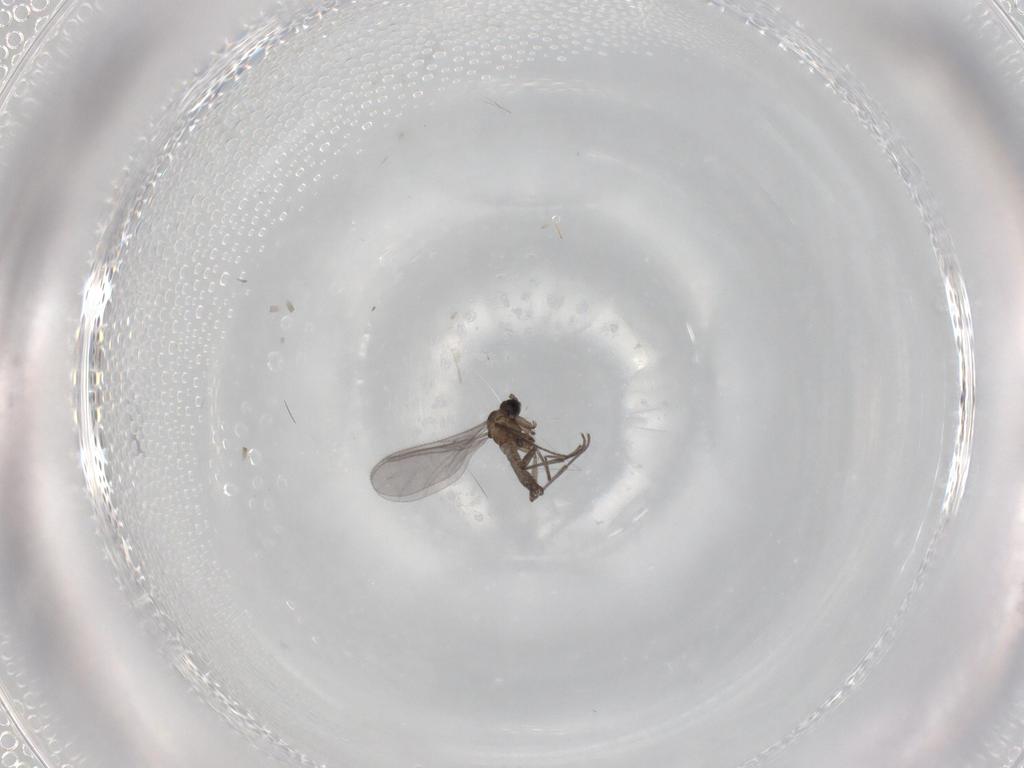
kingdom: Animalia
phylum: Arthropoda
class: Insecta
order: Diptera
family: Sciaridae
